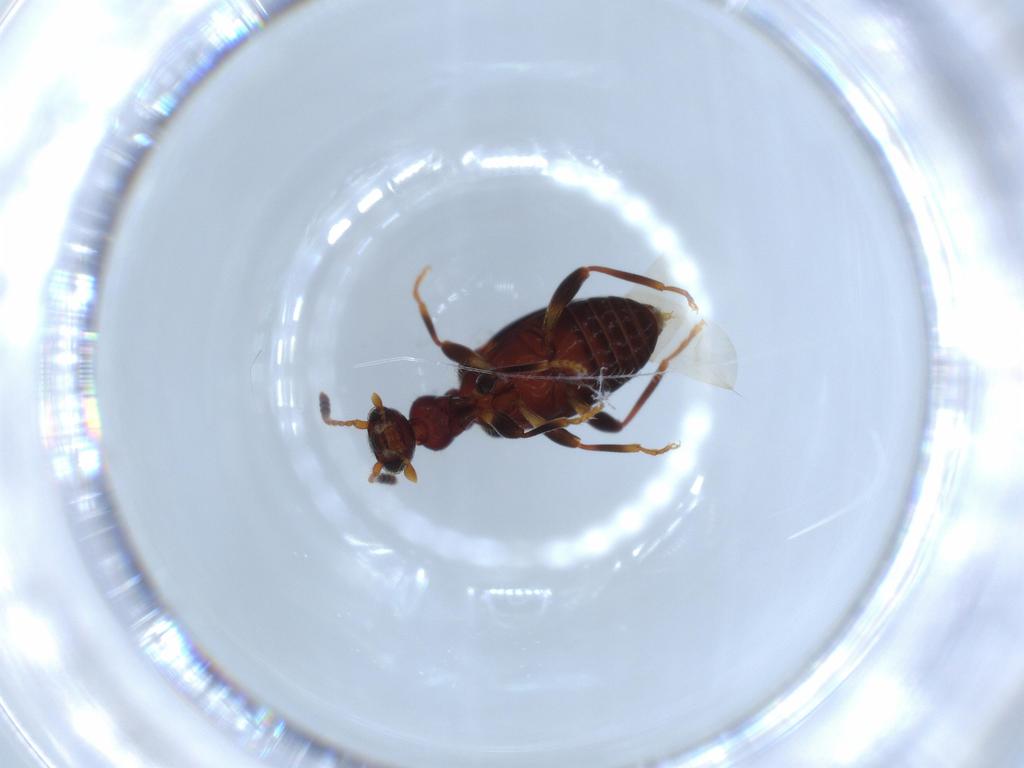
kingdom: Animalia
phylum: Arthropoda
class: Insecta
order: Coleoptera
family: Anthicidae
